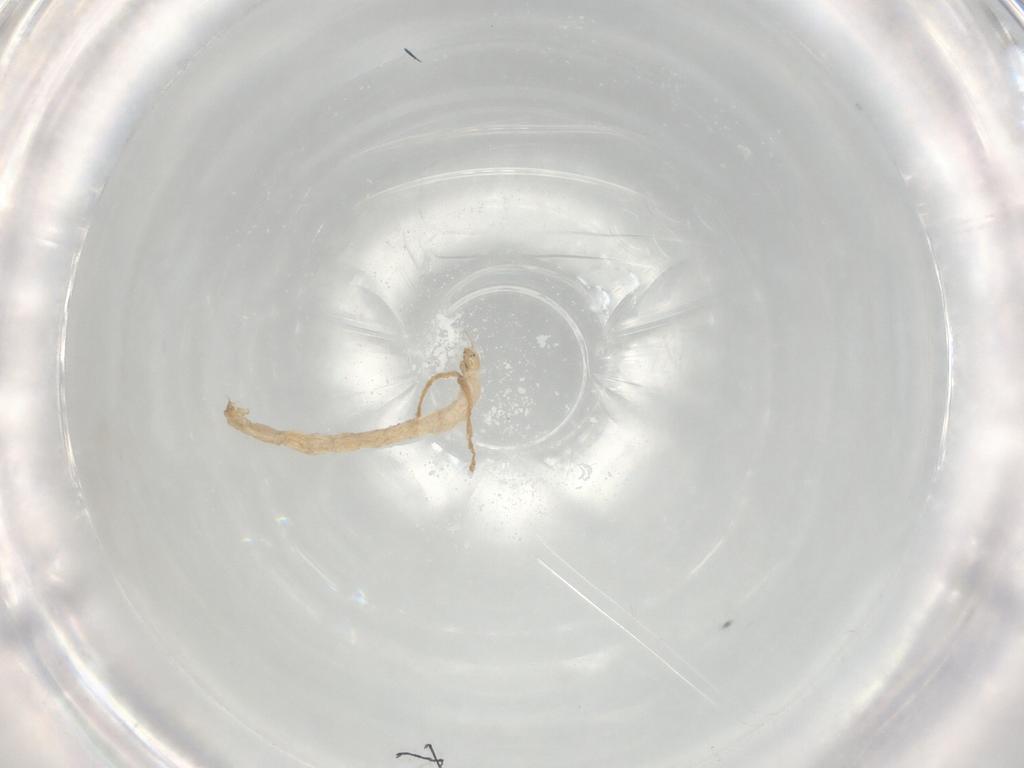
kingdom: Animalia
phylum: Arthropoda
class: Insecta
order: Diptera
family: Chironomidae
